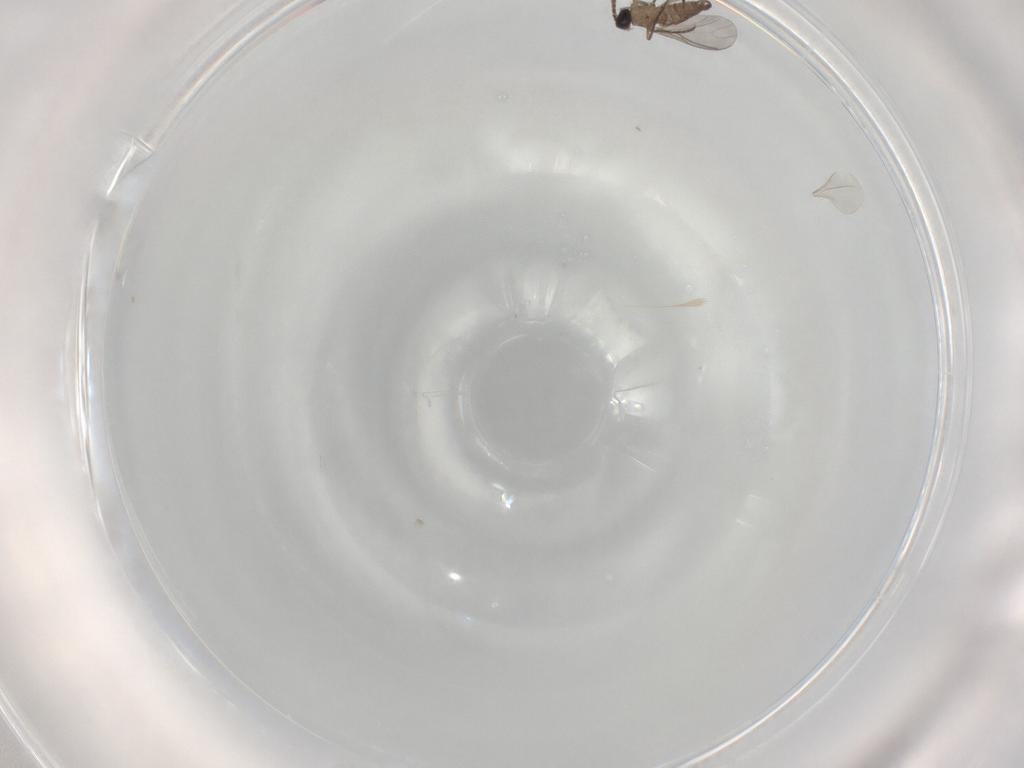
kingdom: Animalia
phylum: Arthropoda
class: Insecta
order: Diptera
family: Sciaridae
